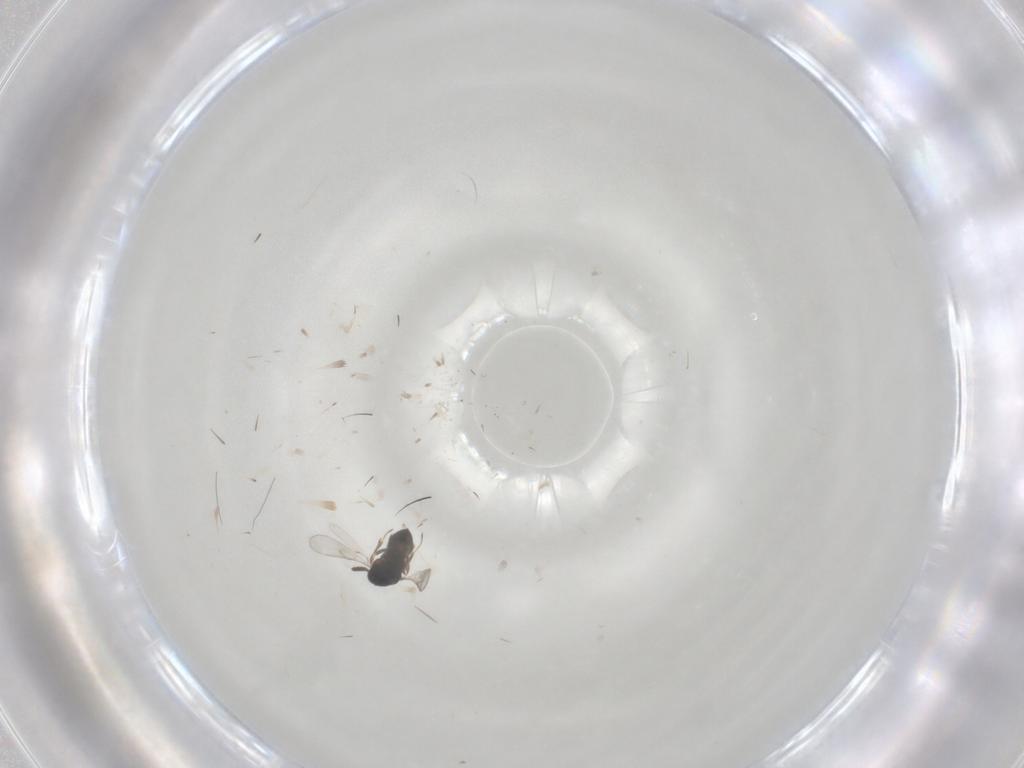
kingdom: Animalia
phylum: Arthropoda
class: Insecta
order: Hymenoptera
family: Scelionidae
